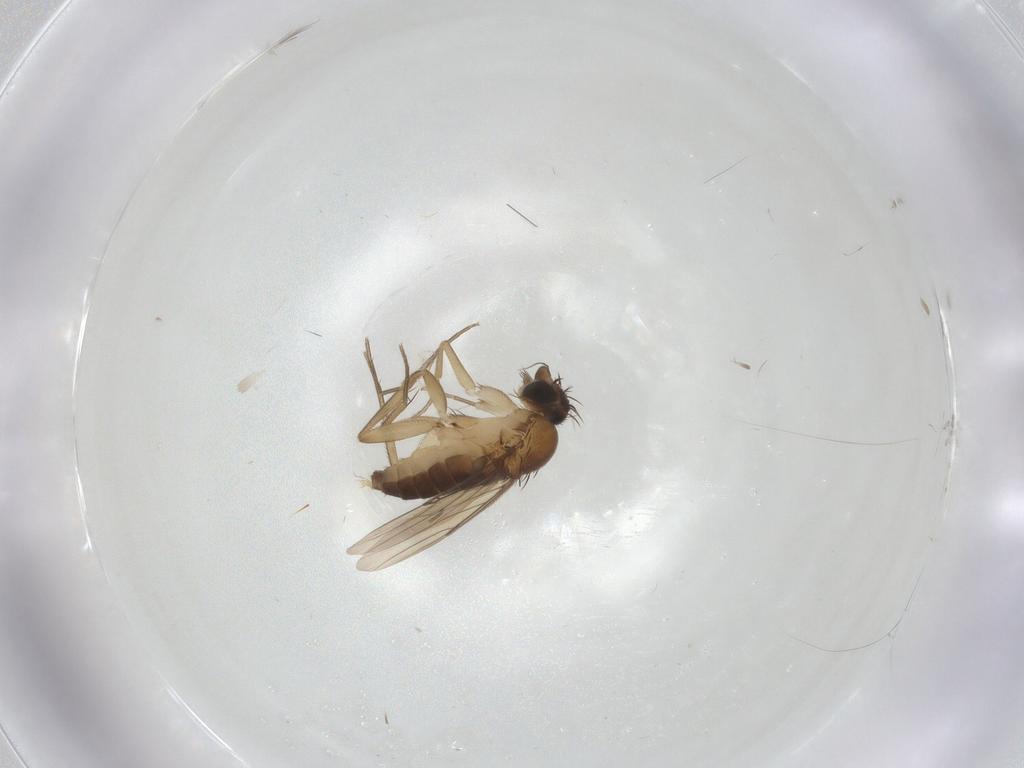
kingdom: Animalia
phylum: Arthropoda
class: Insecta
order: Diptera
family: Phoridae
